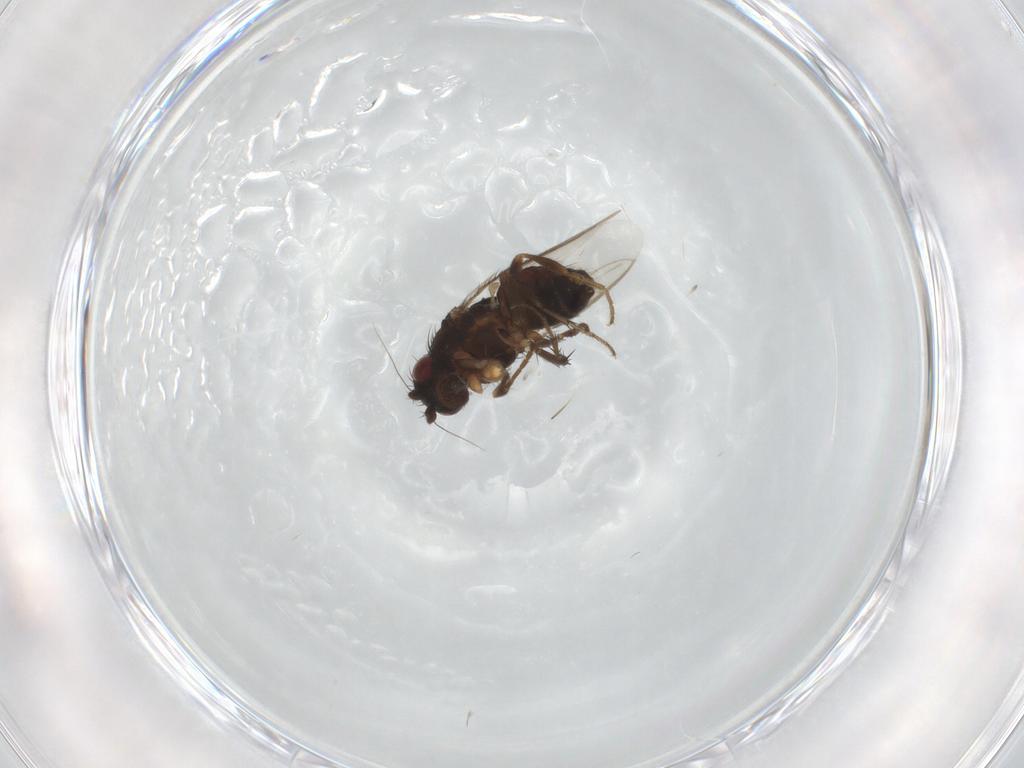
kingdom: Animalia
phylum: Arthropoda
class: Insecta
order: Diptera
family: Sphaeroceridae
